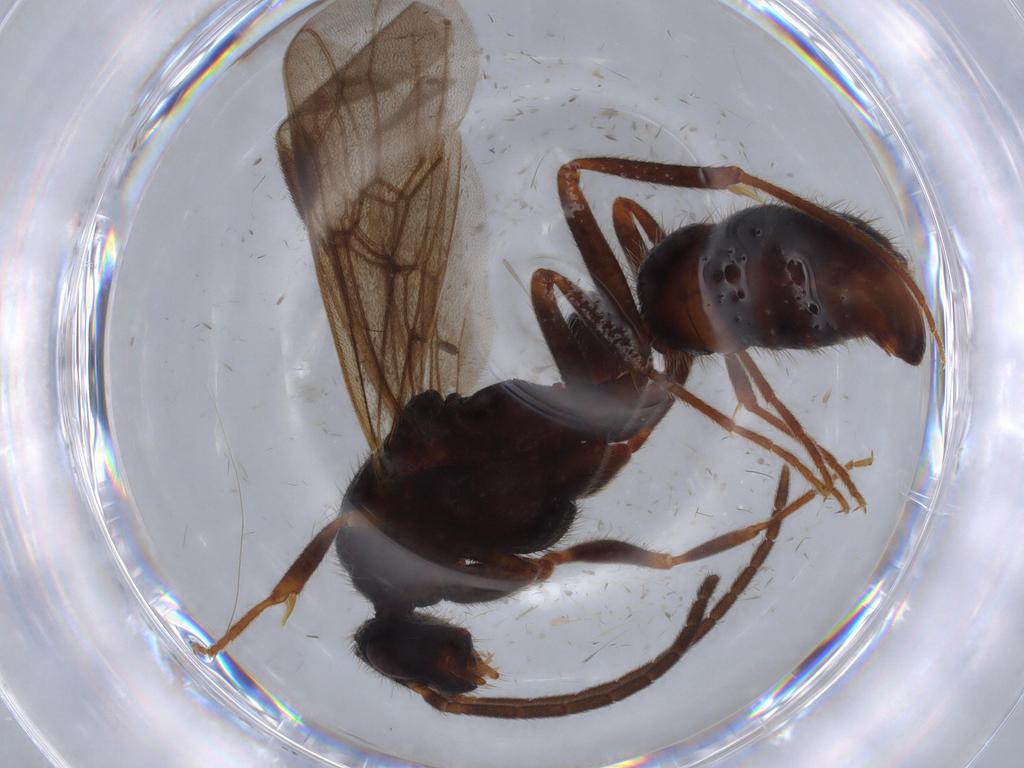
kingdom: Animalia
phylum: Arthropoda
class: Insecta
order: Hymenoptera
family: Formicidae
